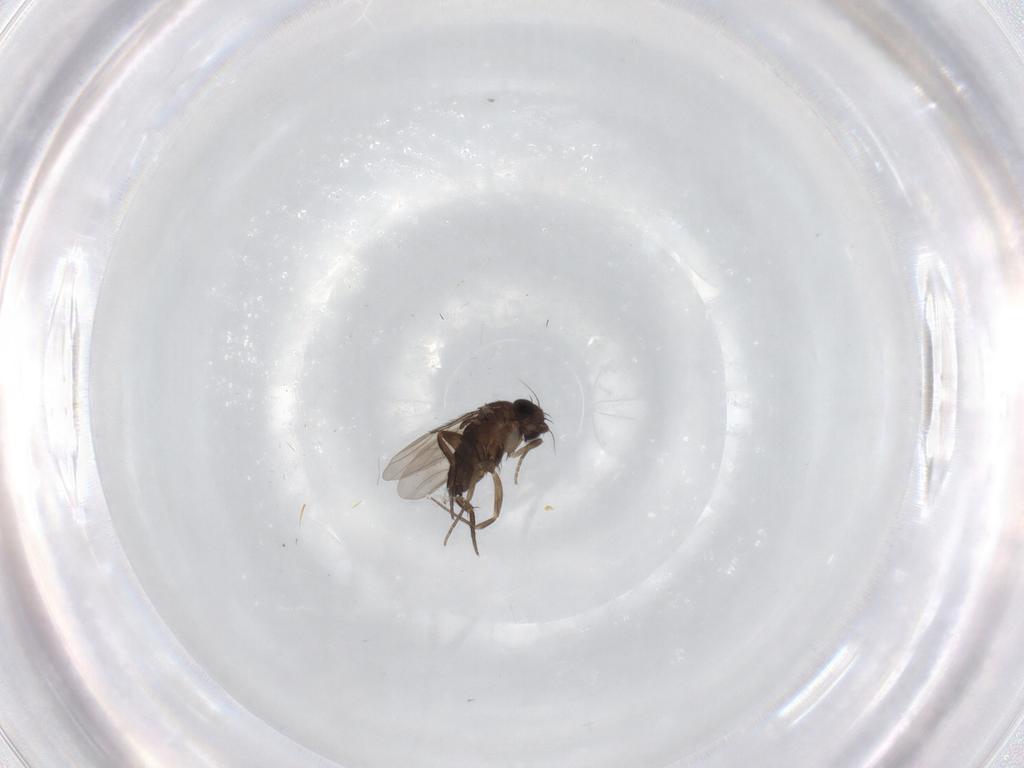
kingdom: Animalia
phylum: Arthropoda
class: Insecta
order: Diptera
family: Phoridae
